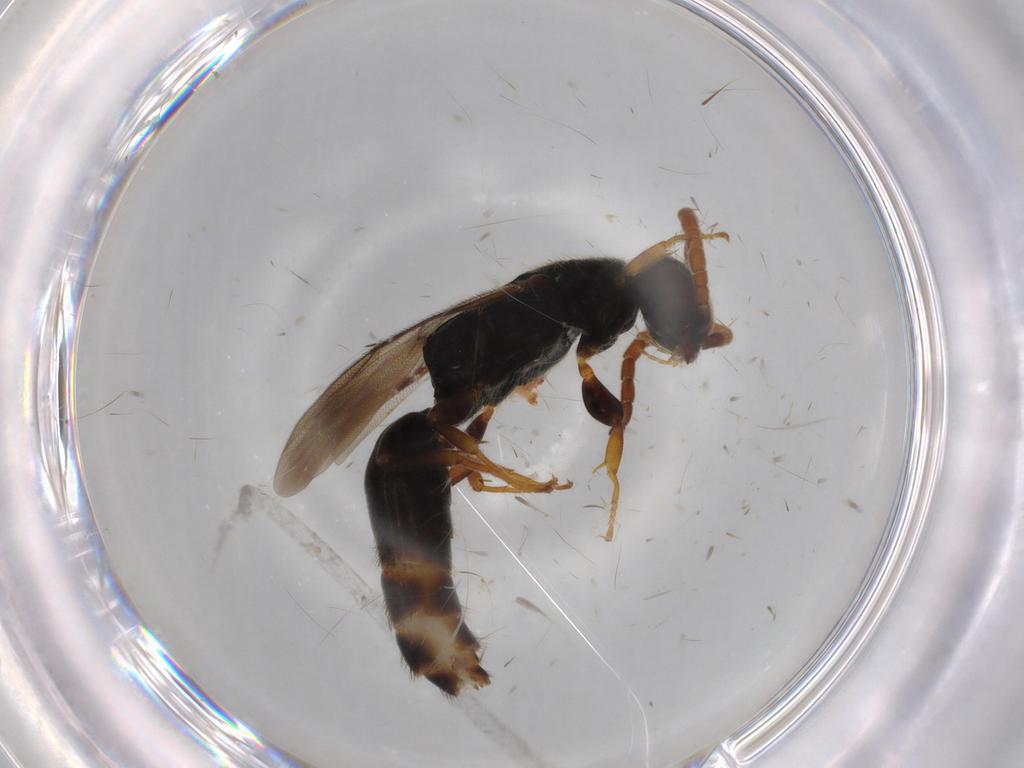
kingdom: Animalia
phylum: Arthropoda
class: Insecta
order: Hymenoptera
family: Bethylidae
